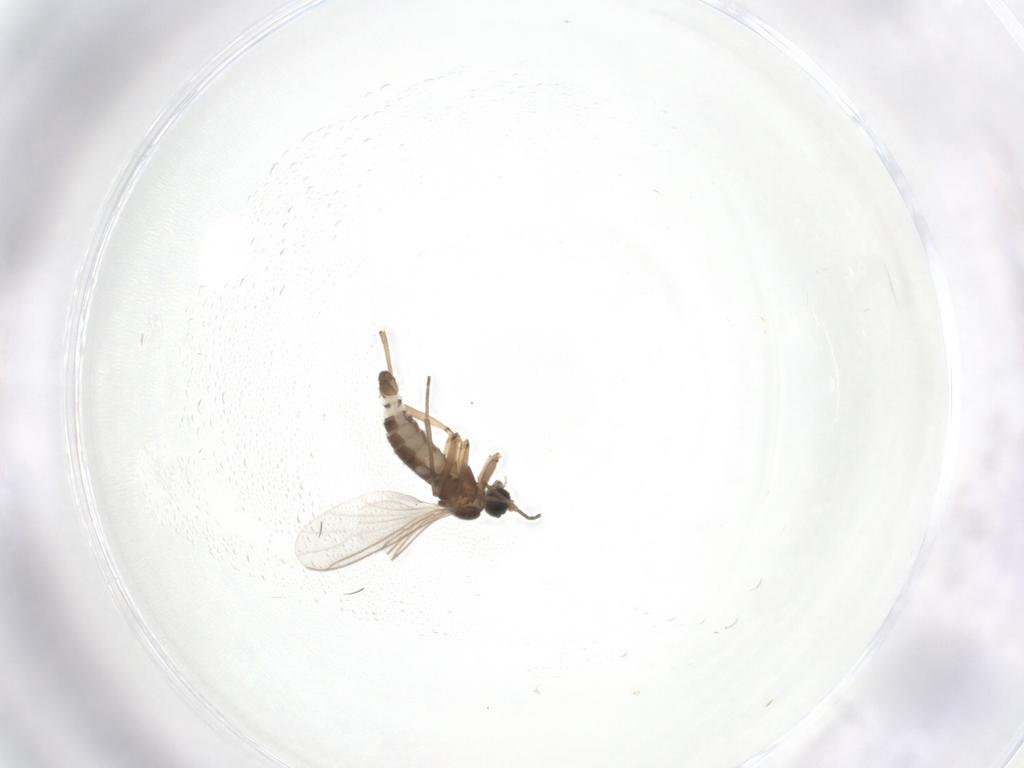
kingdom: Animalia
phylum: Arthropoda
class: Insecta
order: Diptera
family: Sciaridae
